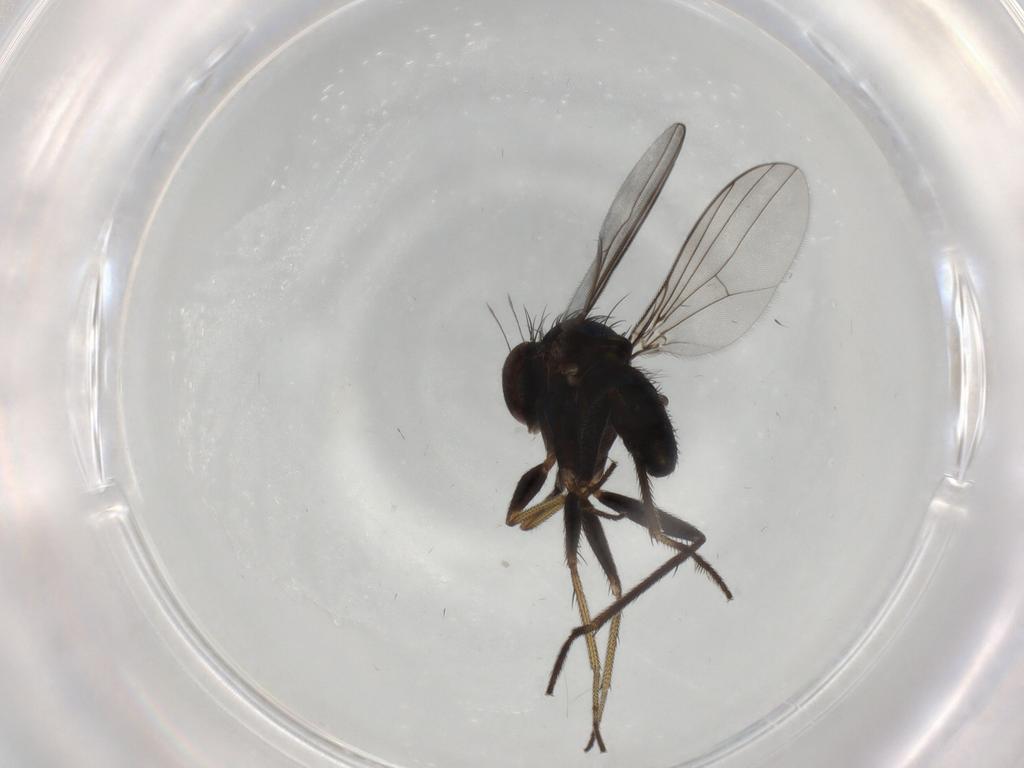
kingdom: Animalia
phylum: Arthropoda
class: Insecta
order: Diptera
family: Dolichopodidae
